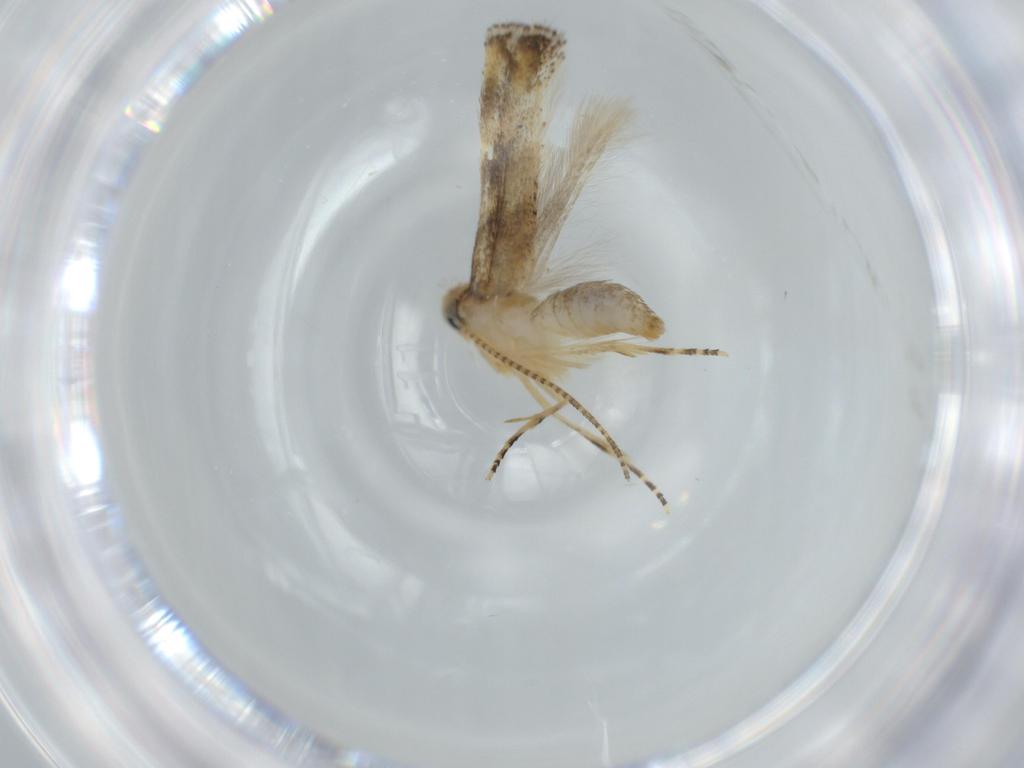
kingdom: Animalia
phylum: Arthropoda
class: Insecta
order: Lepidoptera
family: Bucculatricidae
